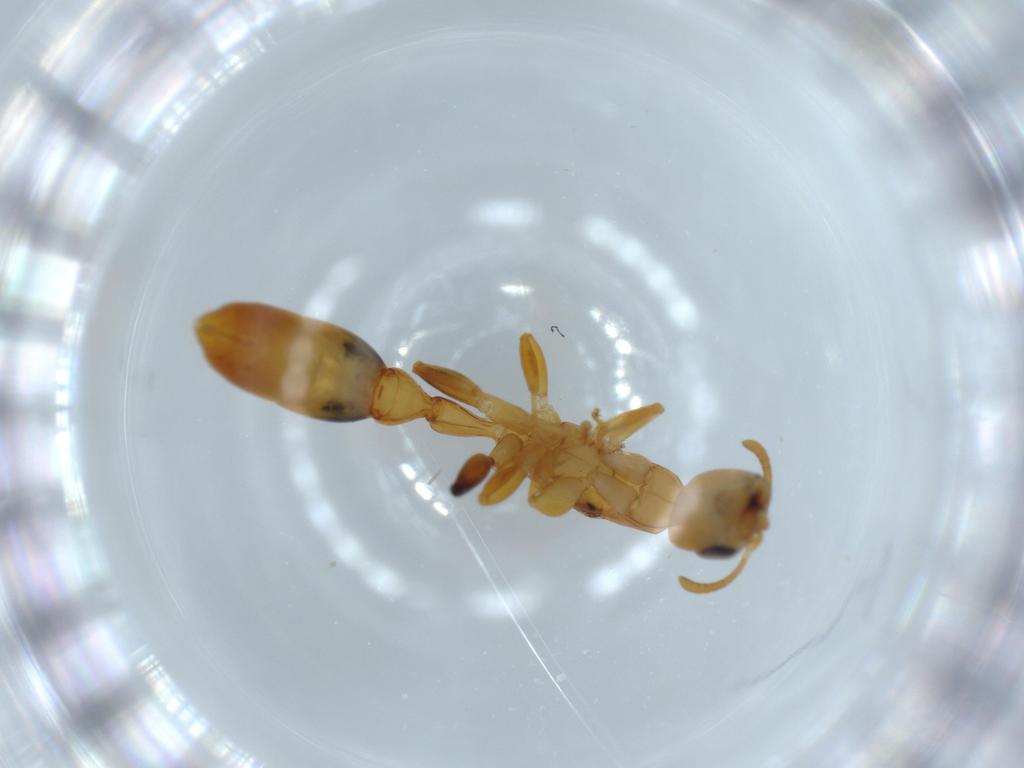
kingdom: Animalia
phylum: Arthropoda
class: Insecta
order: Hymenoptera
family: Formicidae
